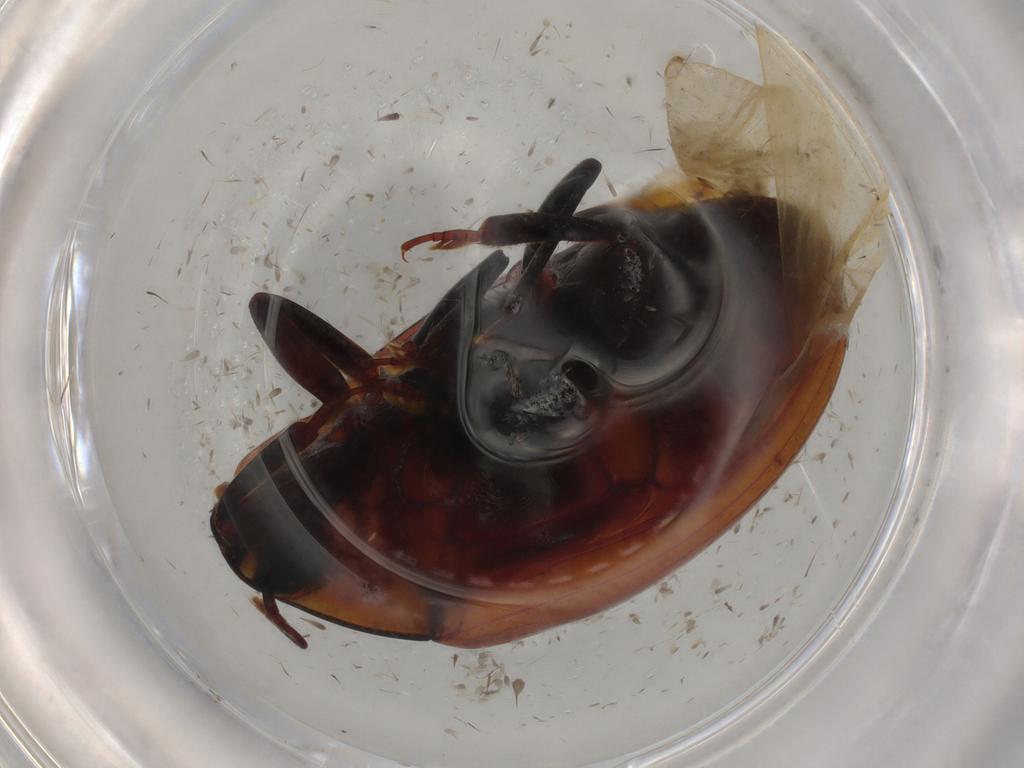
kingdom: Animalia
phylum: Arthropoda
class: Insecta
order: Coleoptera
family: Zopheridae
